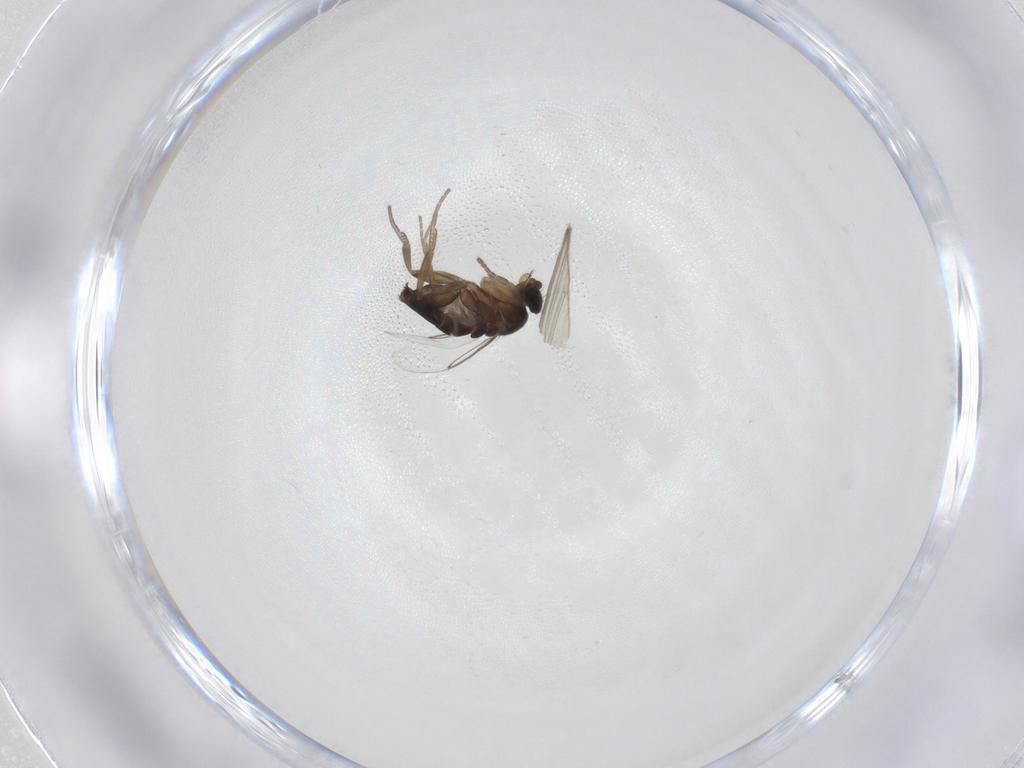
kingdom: Animalia
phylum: Arthropoda
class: Insecta
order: Diptera
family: Phoridae
